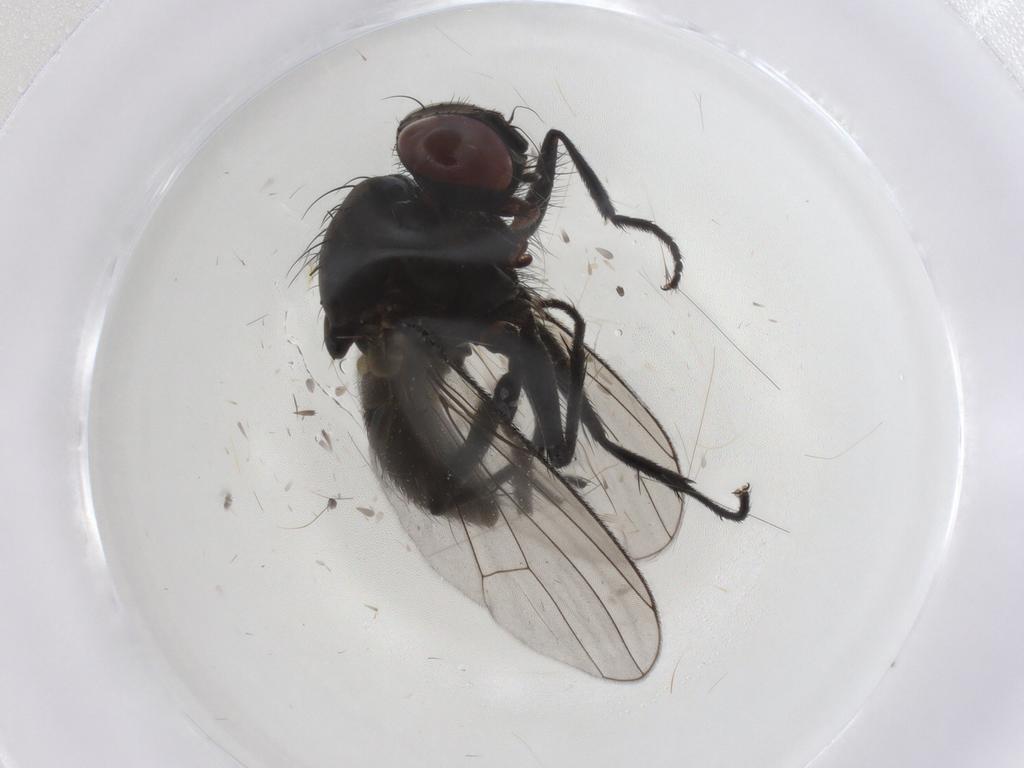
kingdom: Animalia
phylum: Arthropoda
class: Insecta
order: Diptera
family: Muscidae
